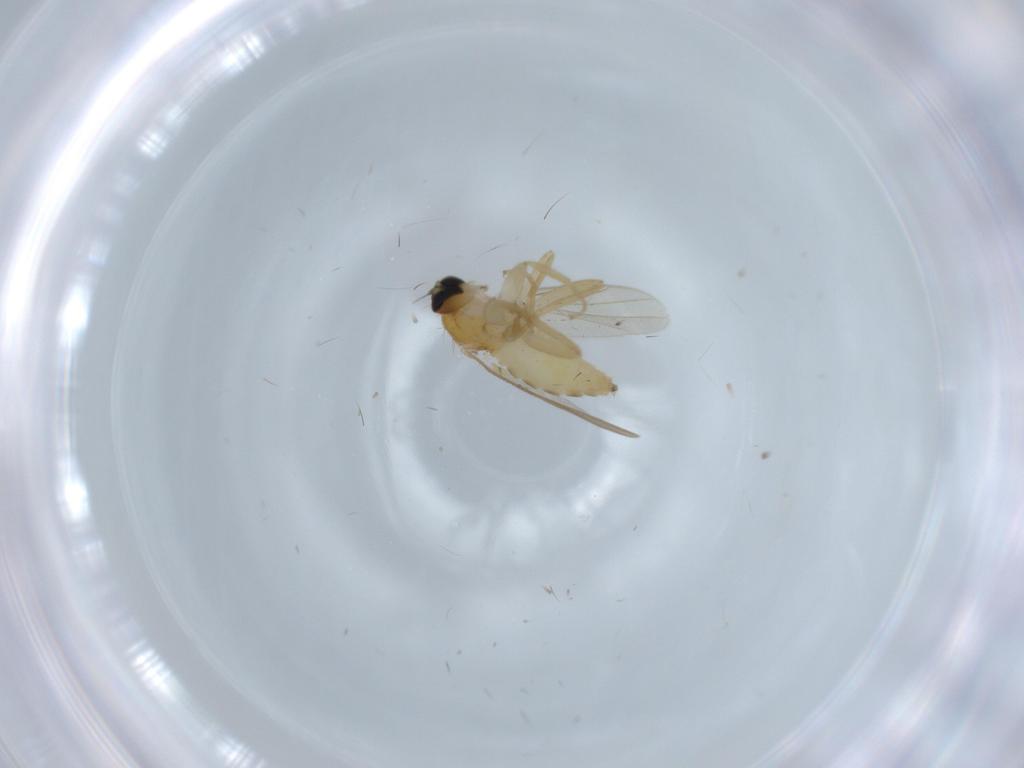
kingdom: Animalia
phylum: Arthropoda
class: Insecta
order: Diptera
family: Hybotidae
